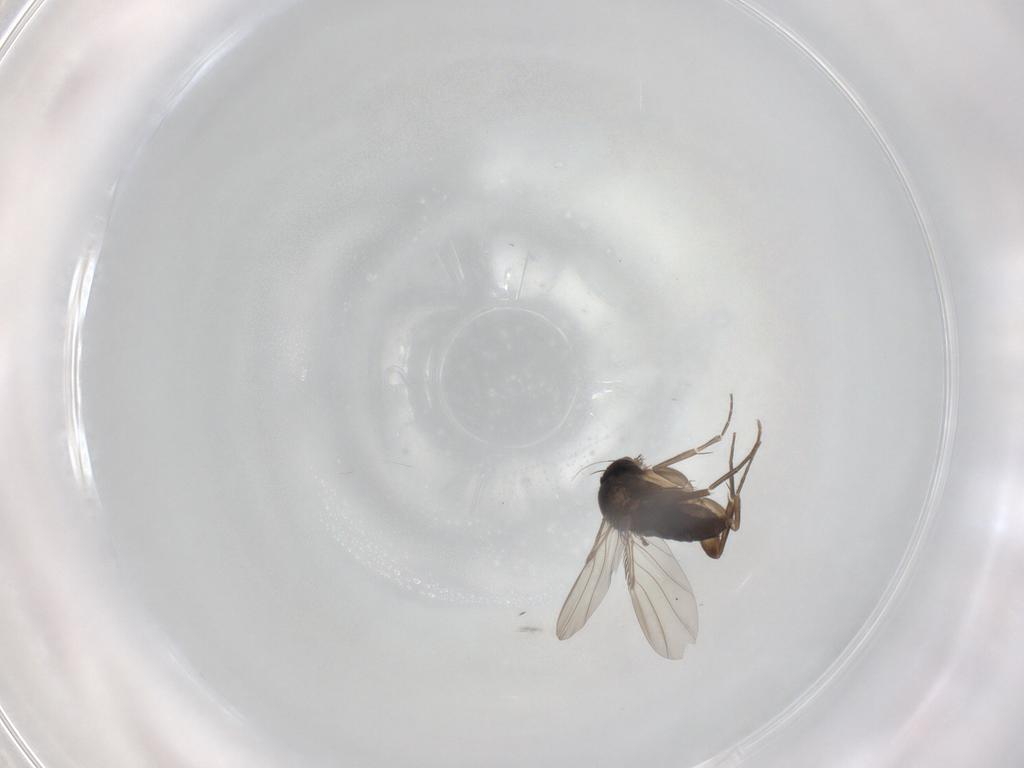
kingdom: Animalia
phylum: Arthropoda
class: Insecta
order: Diptera
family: Phoridae
